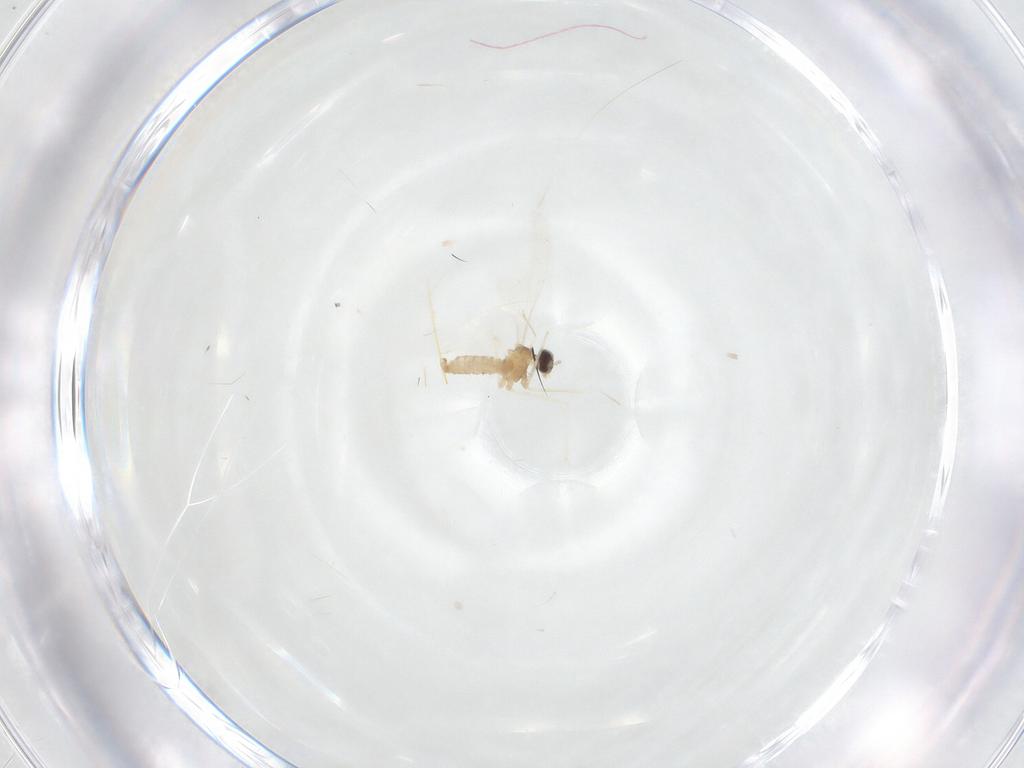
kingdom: Animalia
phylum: Arthropoda
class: Insecta
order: Diptera
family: Cecidomyiidae
